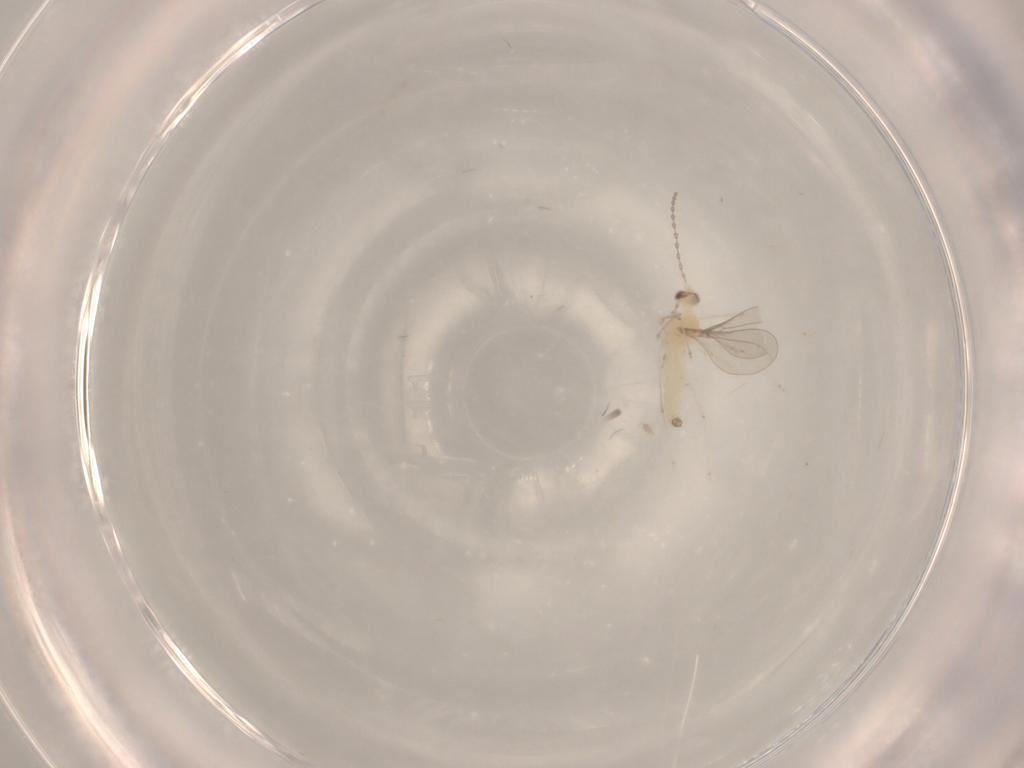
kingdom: Animalia
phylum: Arthropoda
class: Insecta
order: Diptera
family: Cecidomyiidae
